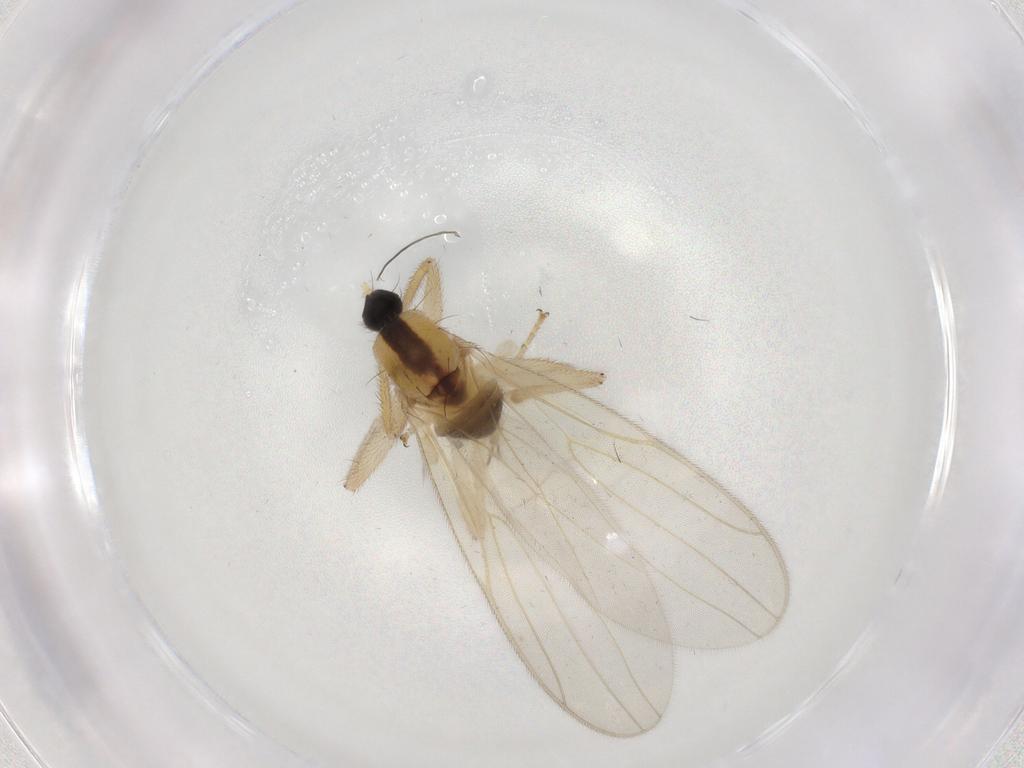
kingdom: Animalia
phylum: Arthropoda
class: Insecta
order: Diptera
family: Hybotidae
